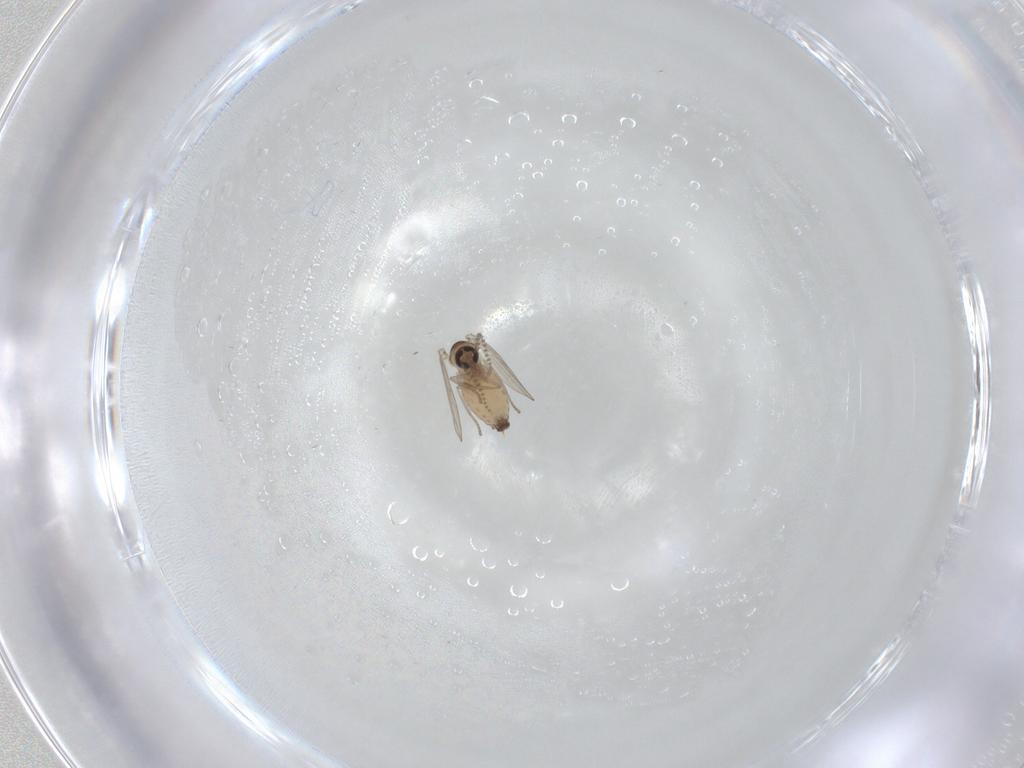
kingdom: Animalia
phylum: Arthropoda
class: Insecta
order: Diptera
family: Psychodidae
